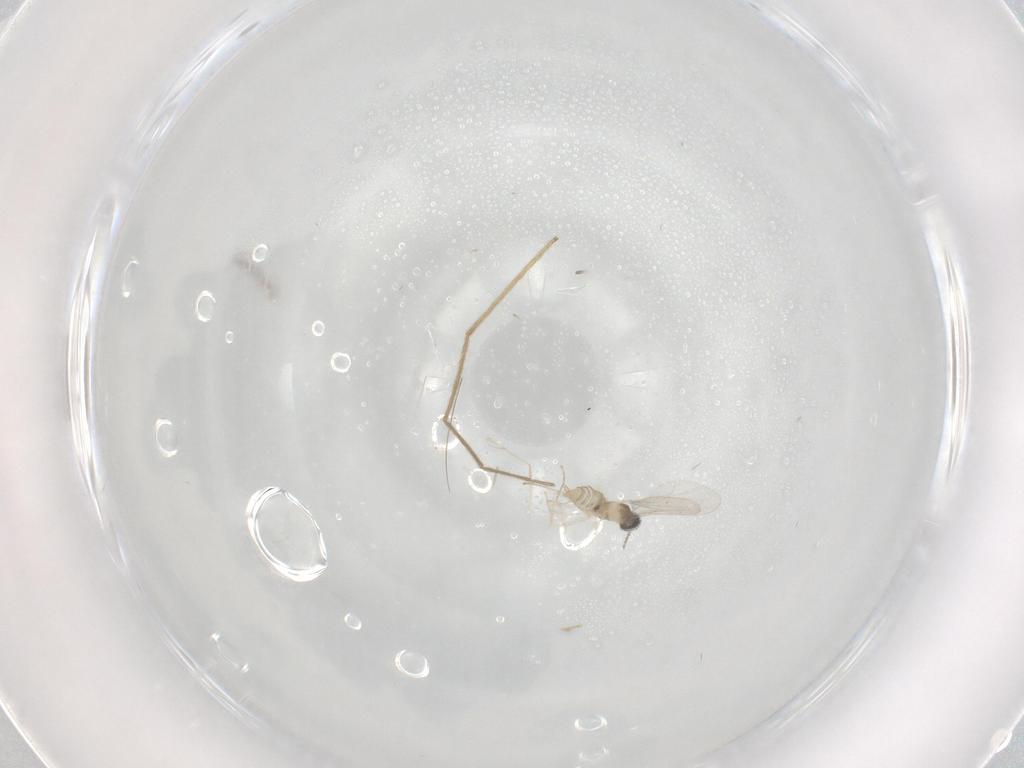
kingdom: Animalia
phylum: Arthropoda
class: Insecta
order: Diptera
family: Cecidomyiidae
